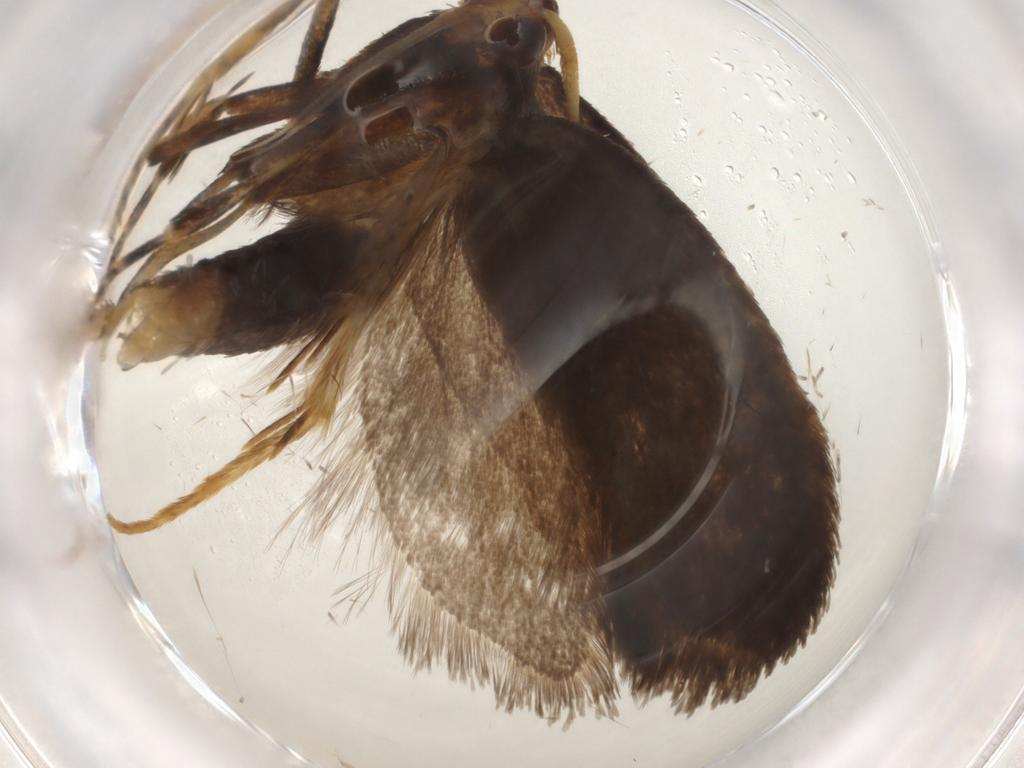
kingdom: Animalia
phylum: Arthropoda
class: Insecta
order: Lepidoptera
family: Lecithoceridae
